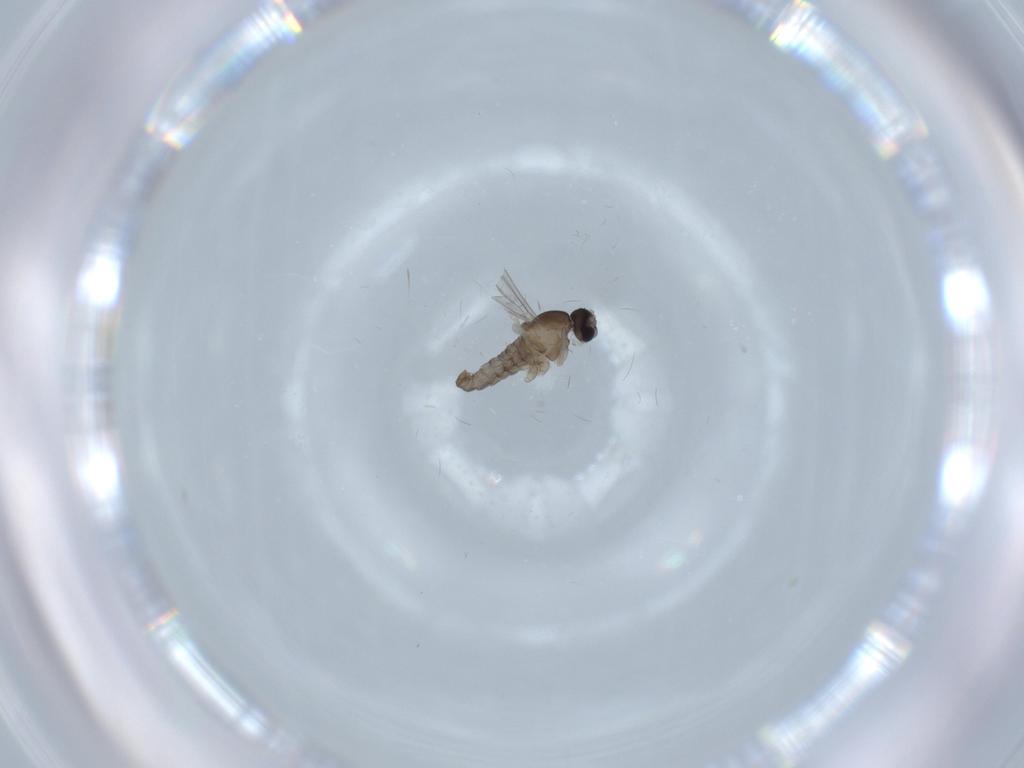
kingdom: Animalia
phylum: Arthropoda
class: Insecta
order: Diptera
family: Cecidomyiidae
